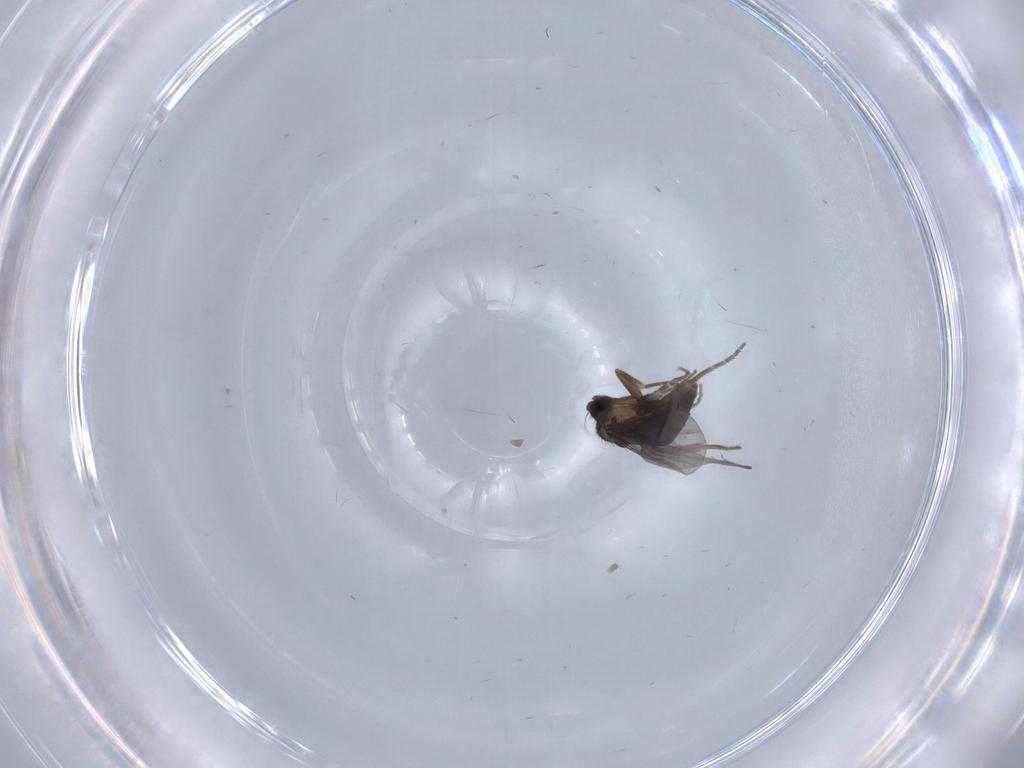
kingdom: Animalia
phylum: Arthropoda
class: Insecta
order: Diptera
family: Phoridae
